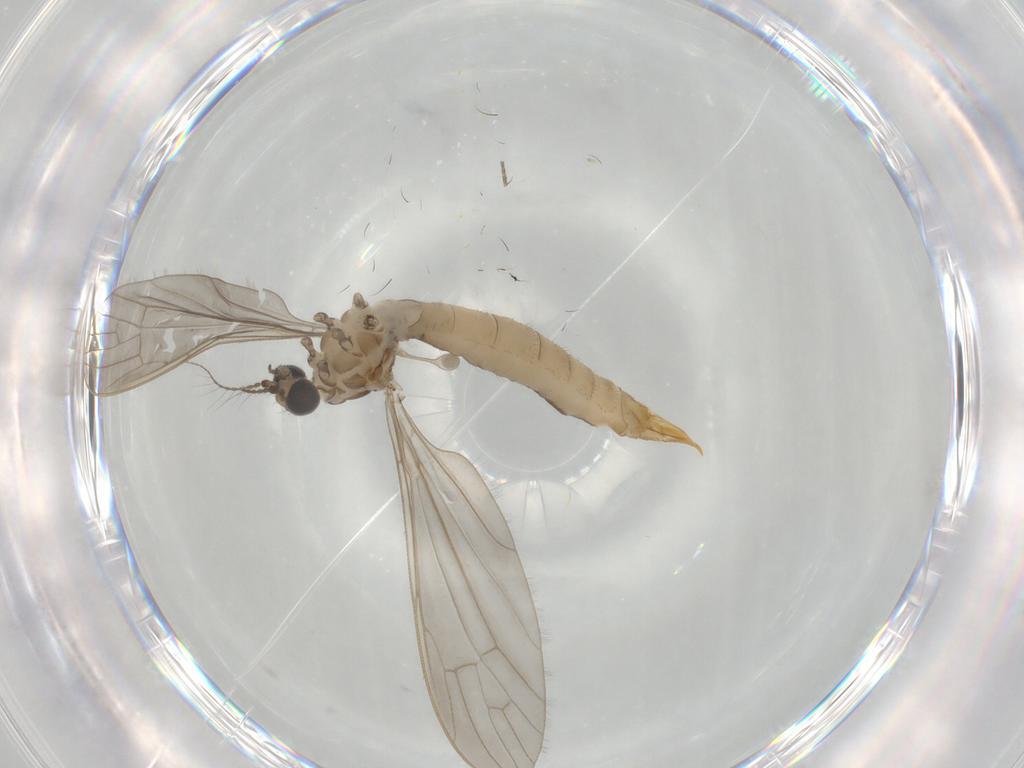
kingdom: Animalia
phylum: Arthropoda
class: Insecta
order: Diptera
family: Limoniidae
